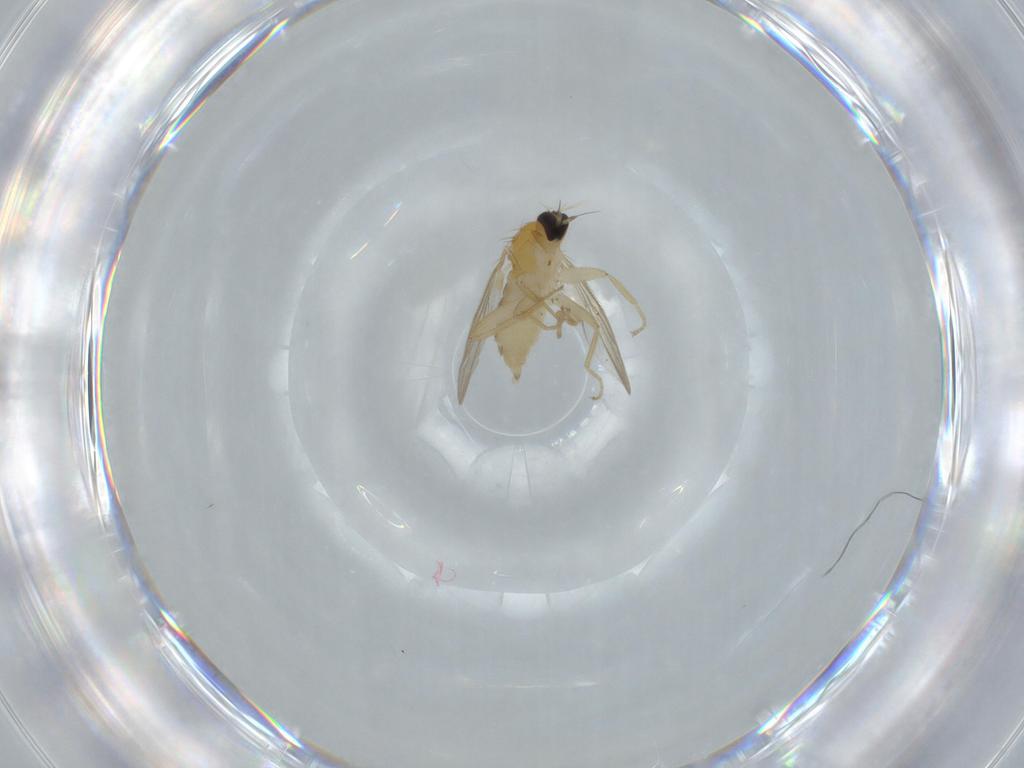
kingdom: Animalia
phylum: Arthropoda
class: Insecta
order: Diptera
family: Hybotidae
